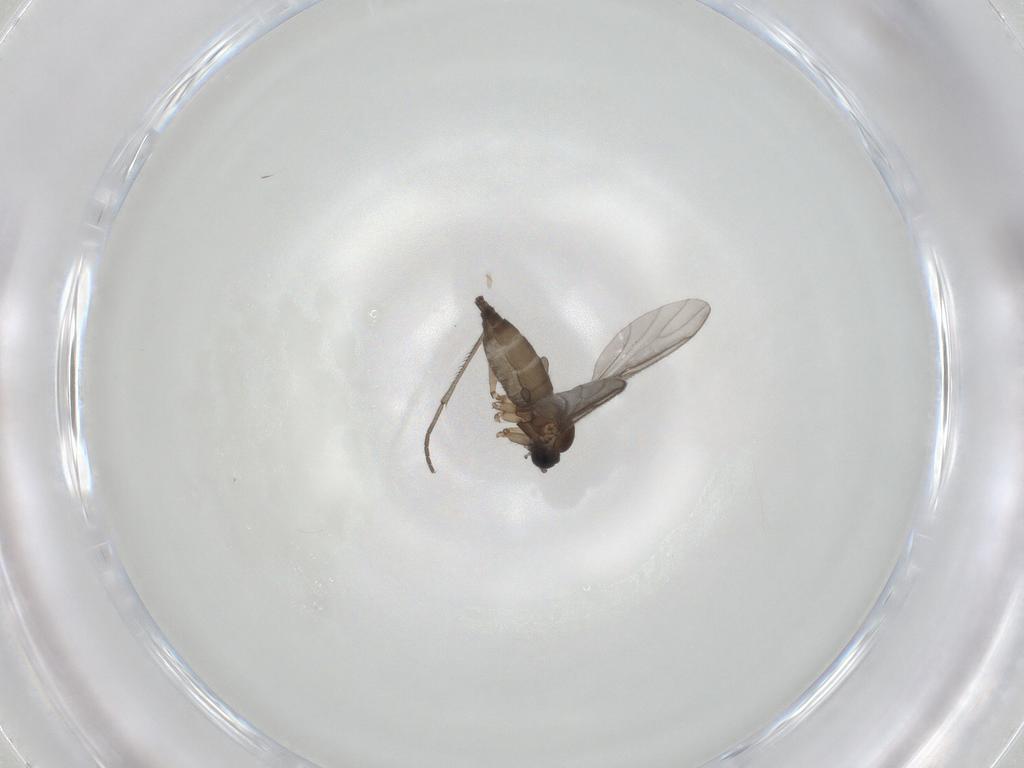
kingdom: Animalia
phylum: Arthropoda
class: Insecta
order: Diptera
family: Sciaridae
